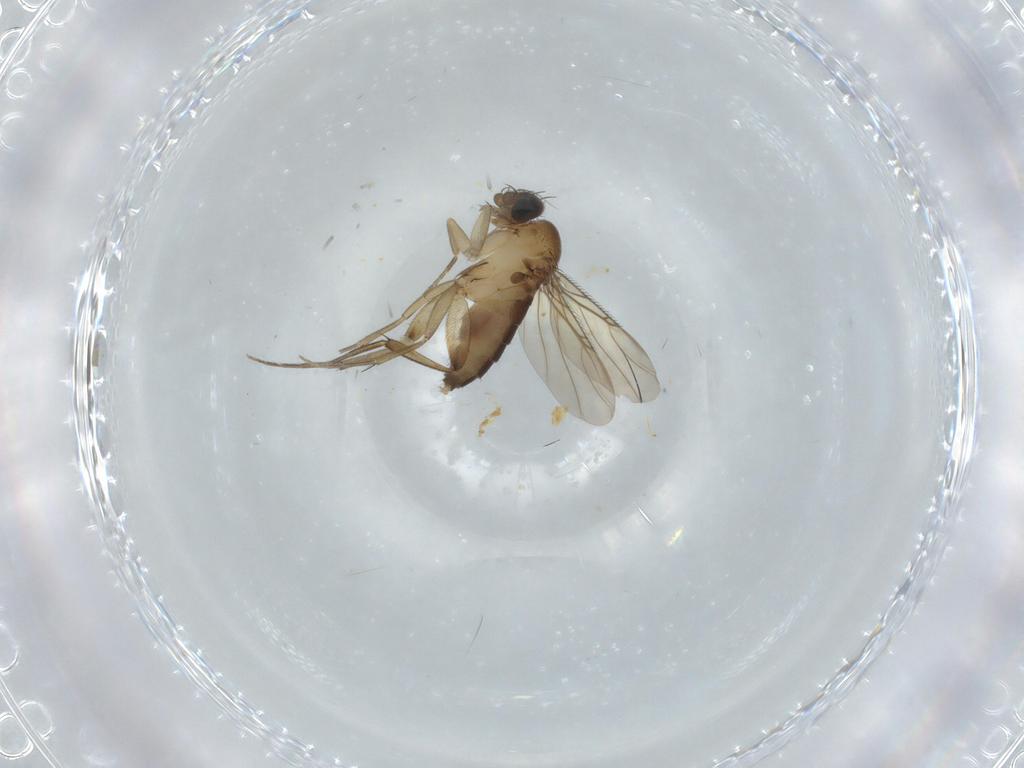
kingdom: Animalia
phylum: Arthropoda
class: Insecta
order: Diptera
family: Phoridae
